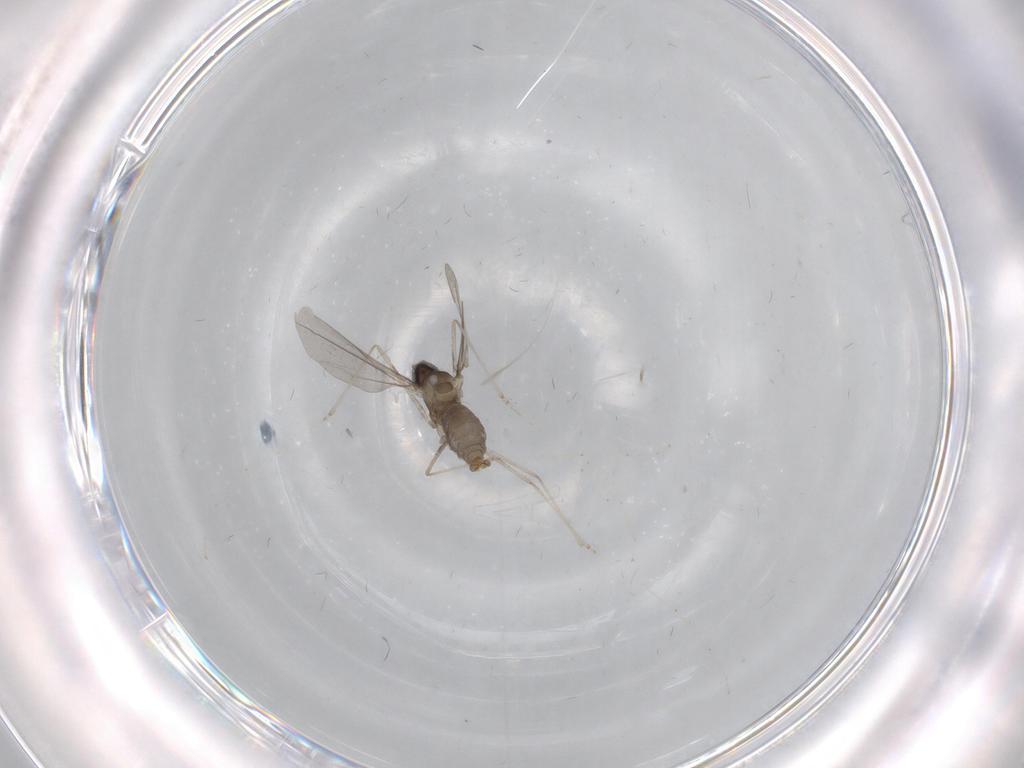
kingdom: Animalia
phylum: Arthropoda
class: Insecta
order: Diptera
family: Cecidomyiidae
